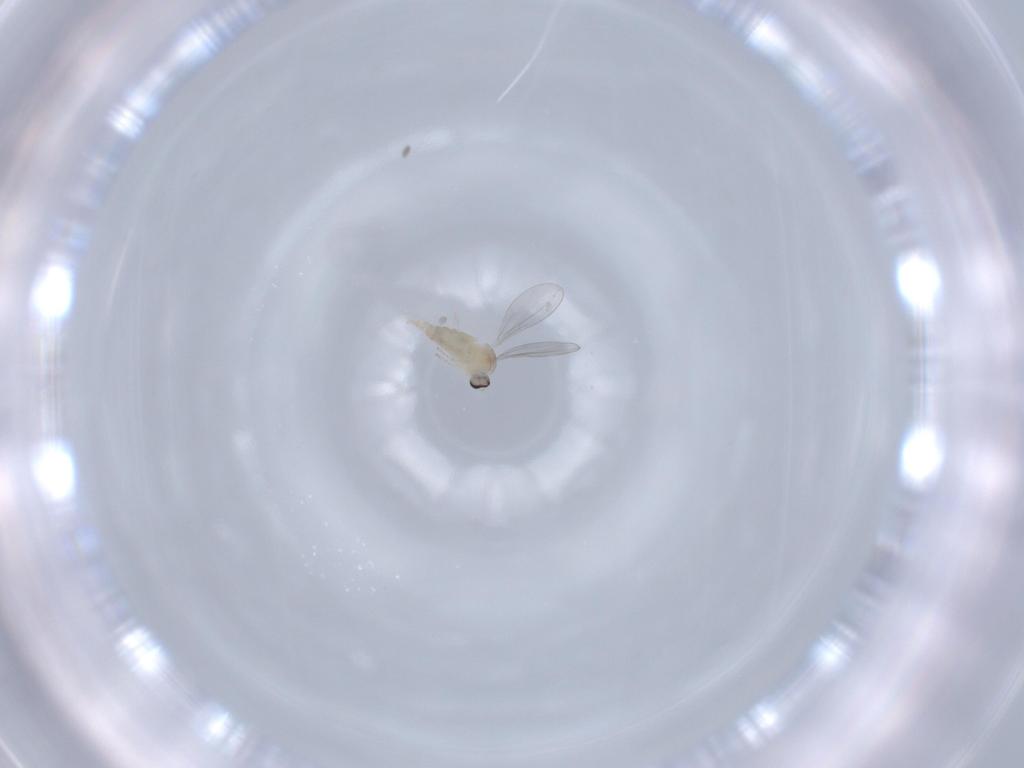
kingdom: Animalia
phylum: Arthropoda
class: Insecta
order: Diptera
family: Cecidomyiidae
